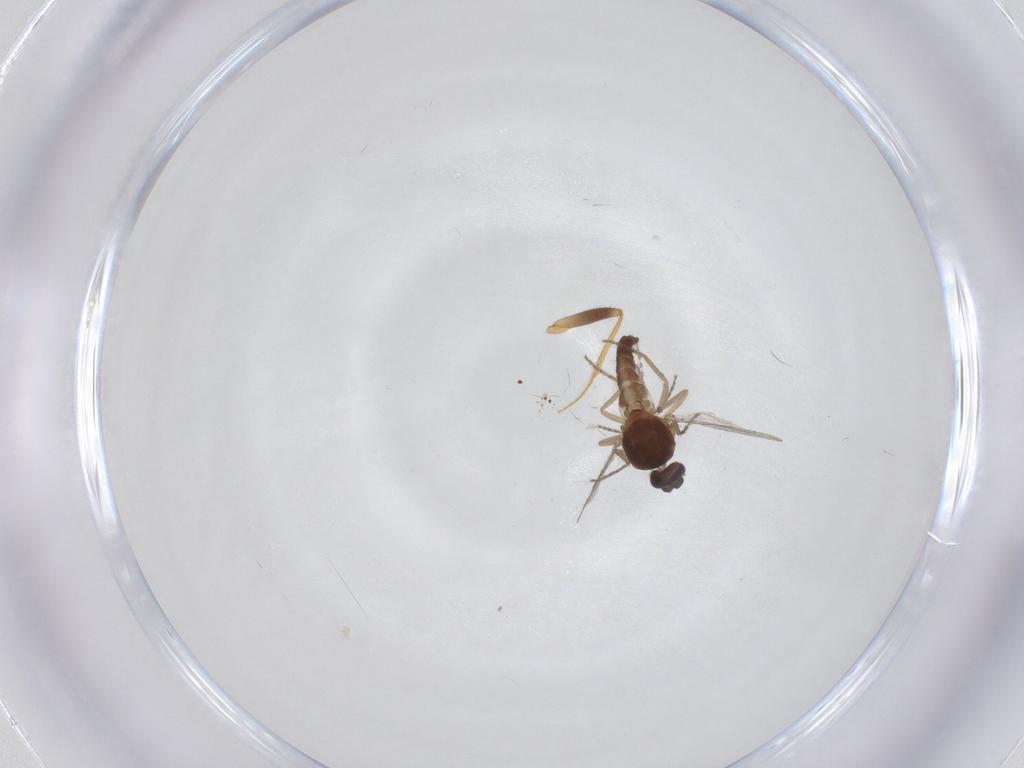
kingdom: Animalia
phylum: Arthropoda
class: Insecta
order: Diptera
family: Ceratopogonidae
